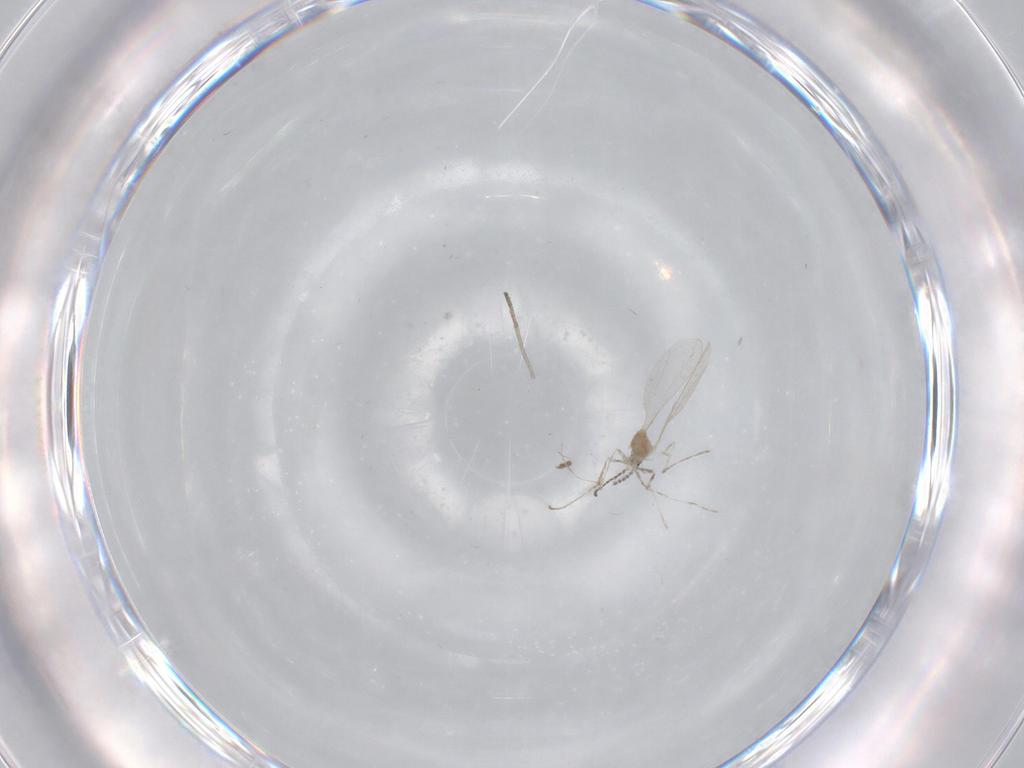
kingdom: Animalia
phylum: Arthropoda
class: Insecta
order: Diptera
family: Cecidomyiidae
